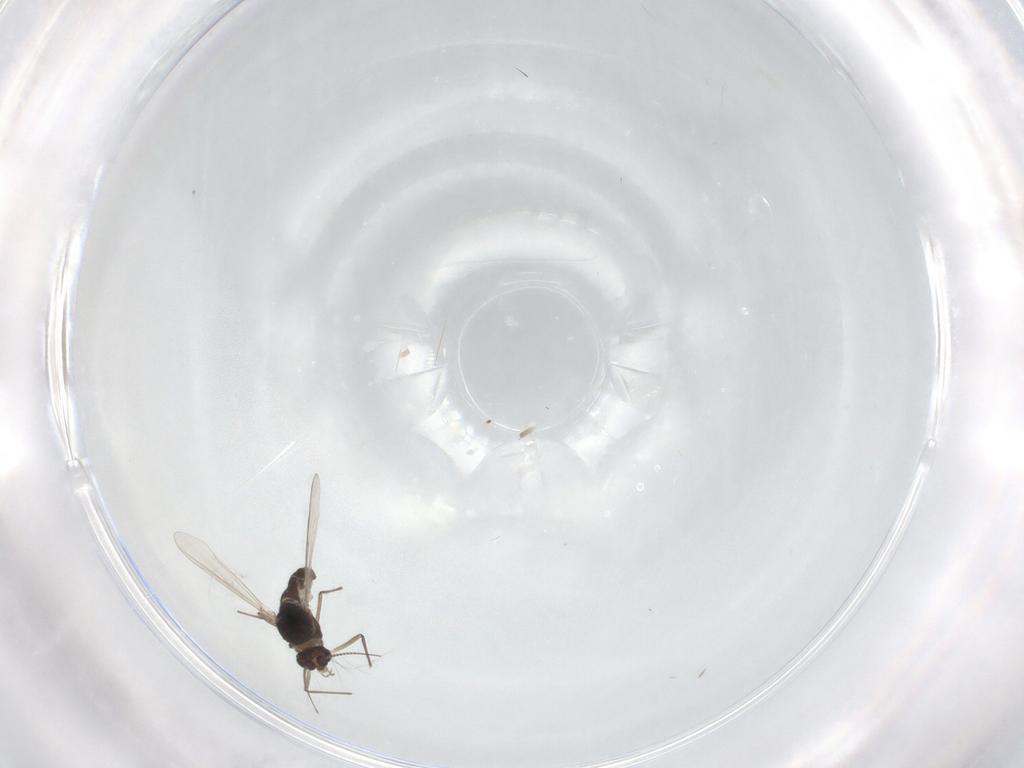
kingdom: Animalia
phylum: Arthropoda
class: Insecta
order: Diptera
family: Chironomidae
